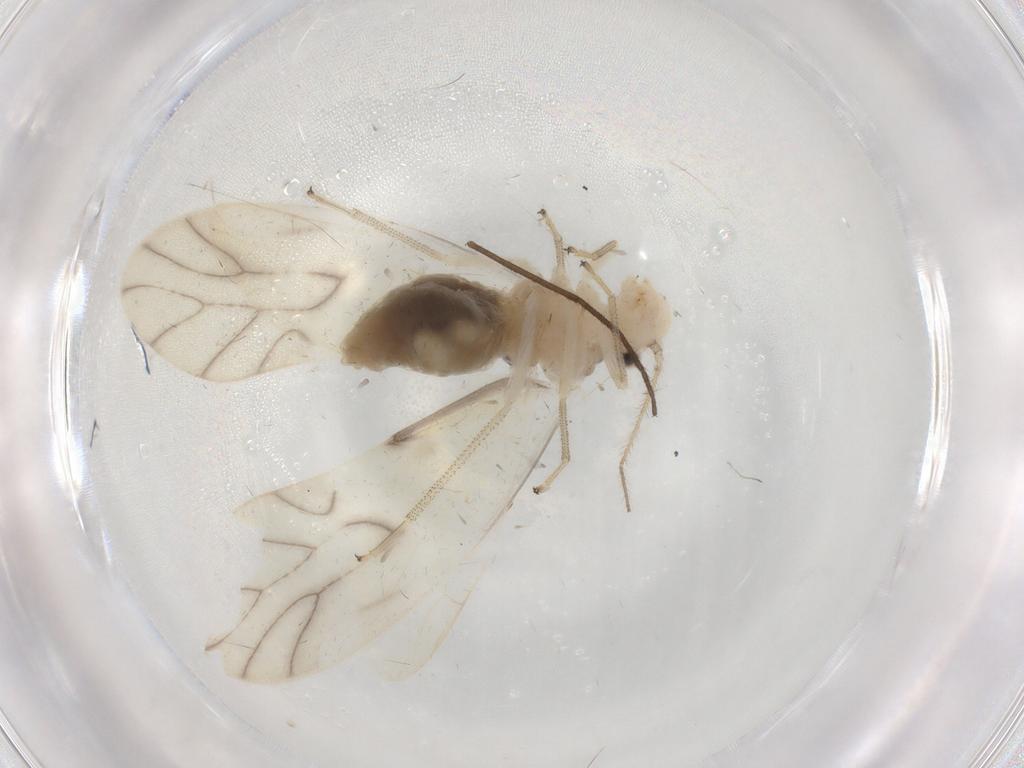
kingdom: Animalia
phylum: Arthropoda
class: Insecta
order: Psocodea
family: Caeciliusidae
